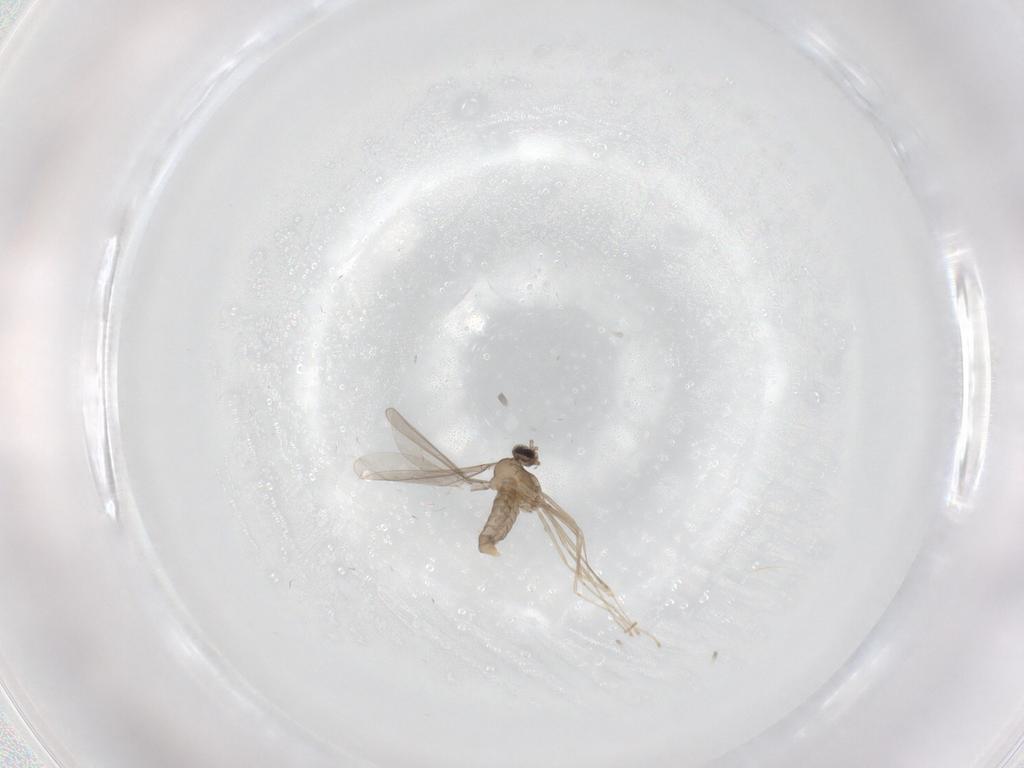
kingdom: Animalia
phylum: Arthropoda
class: Insecta
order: Diptera
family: Cecidomyiidae
